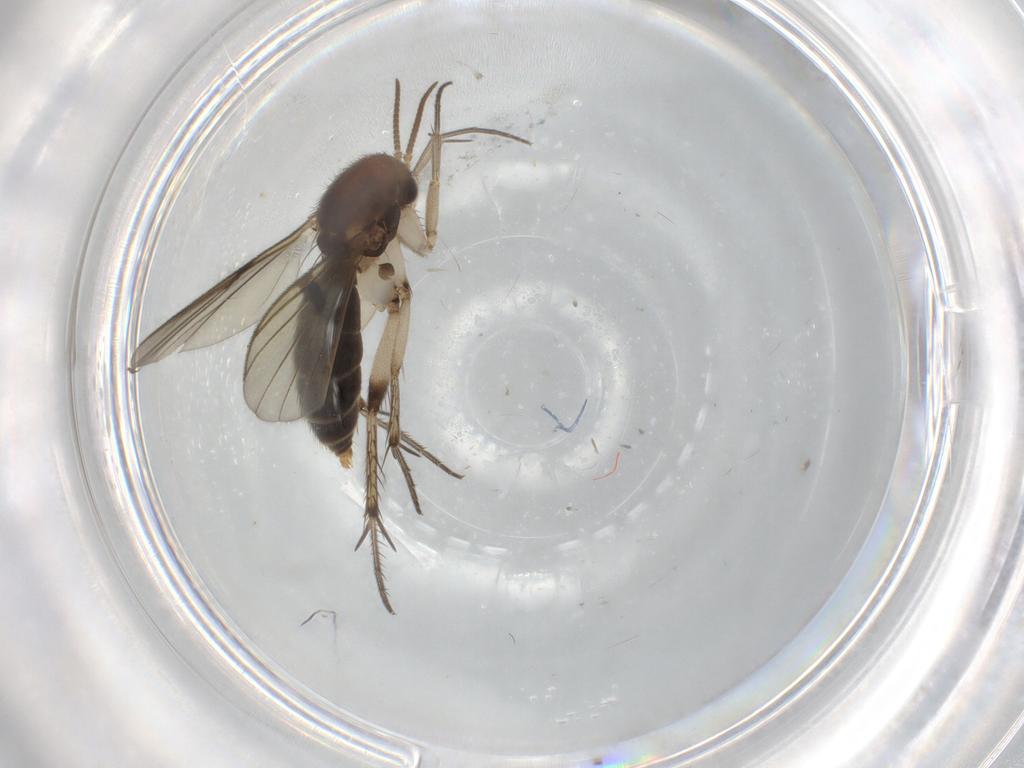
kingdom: Animalia
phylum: Arthropoda
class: Insecta
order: Diptera
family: Mycetophilidae
